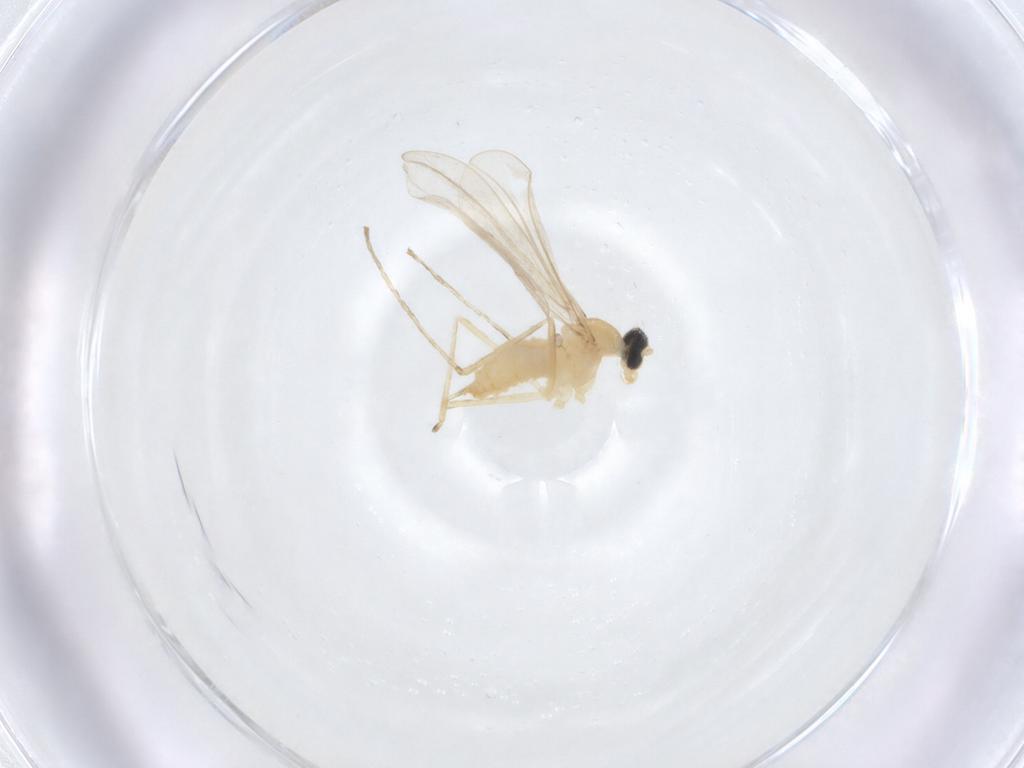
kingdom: Animalia
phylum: Arthropoda
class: Insecta
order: Diptera
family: Cecidomyiidae
